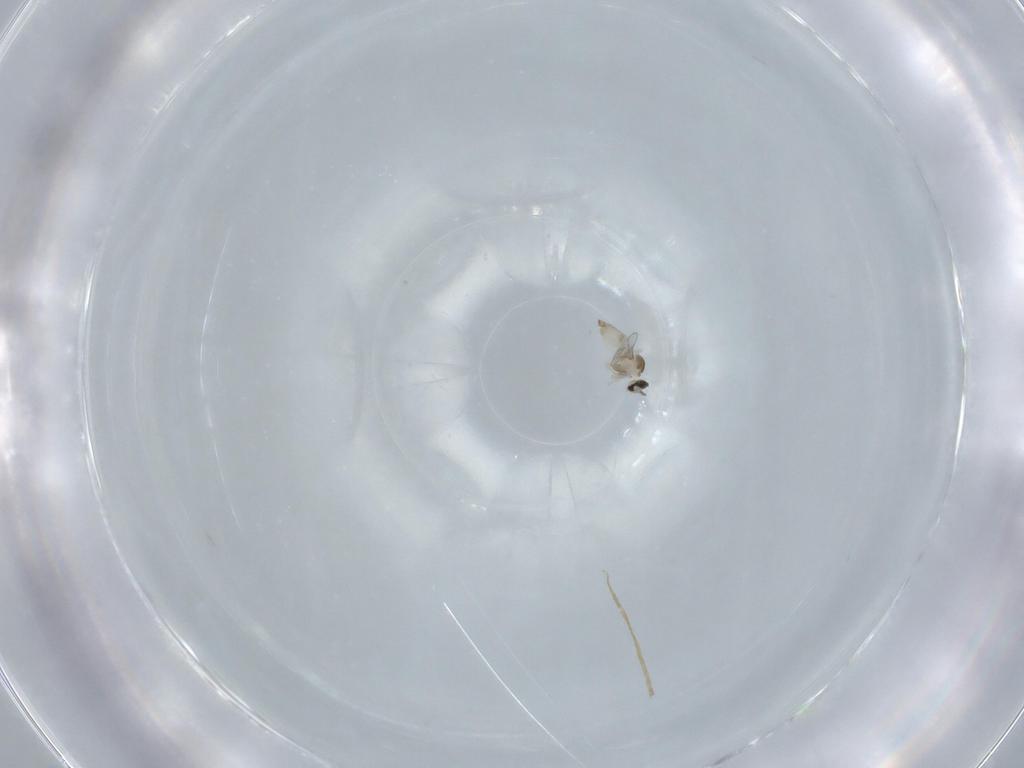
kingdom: Animalia
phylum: Arthropoda
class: Insecta
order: Diptera
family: Cecidomyiidae
